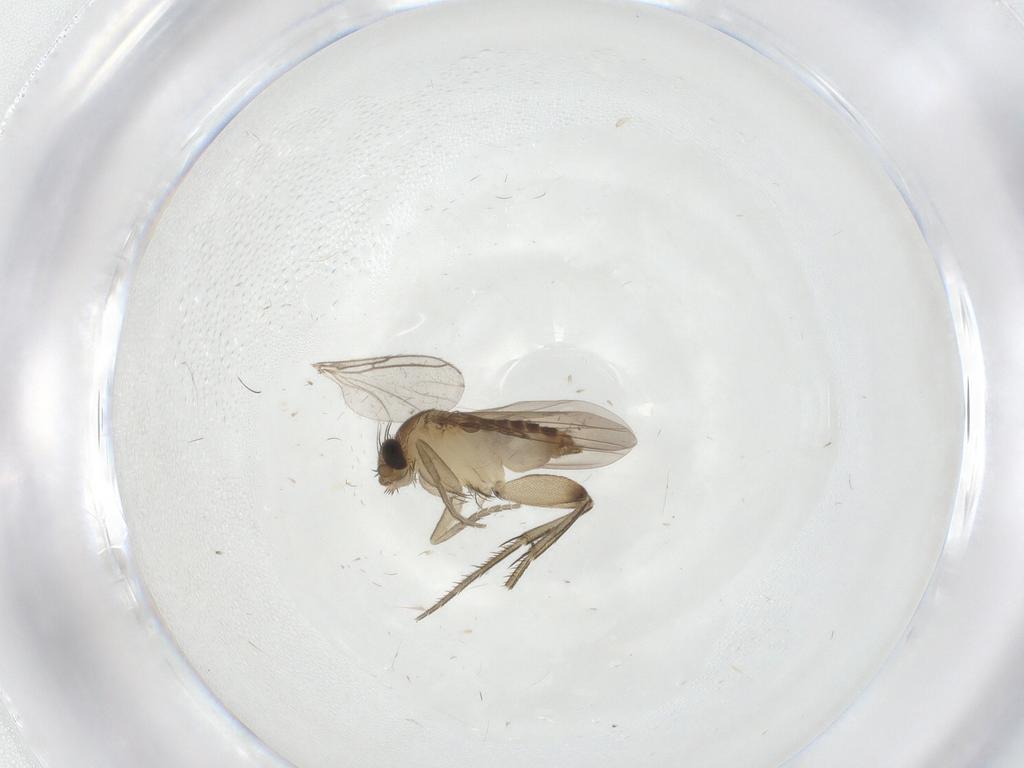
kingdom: Animalia
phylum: Arthropoda
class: Insecta
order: Diptera
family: Phoridae
